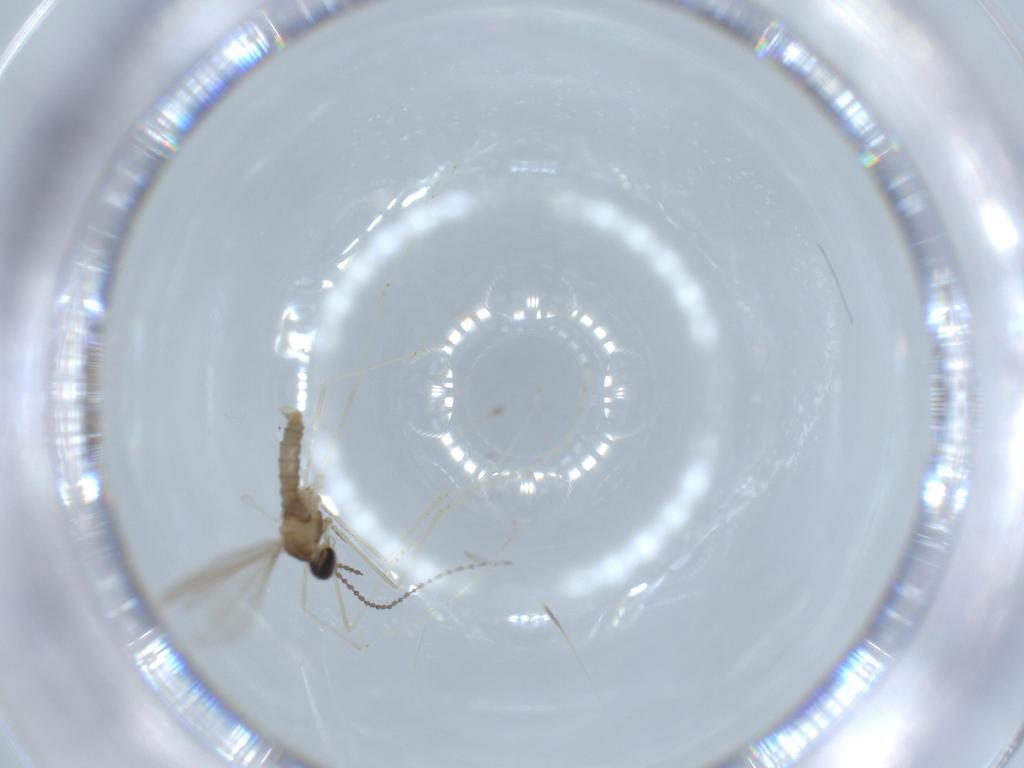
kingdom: Animalia
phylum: Arthropoda
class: Insecta
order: Diptera
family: Cecidomyiidae
